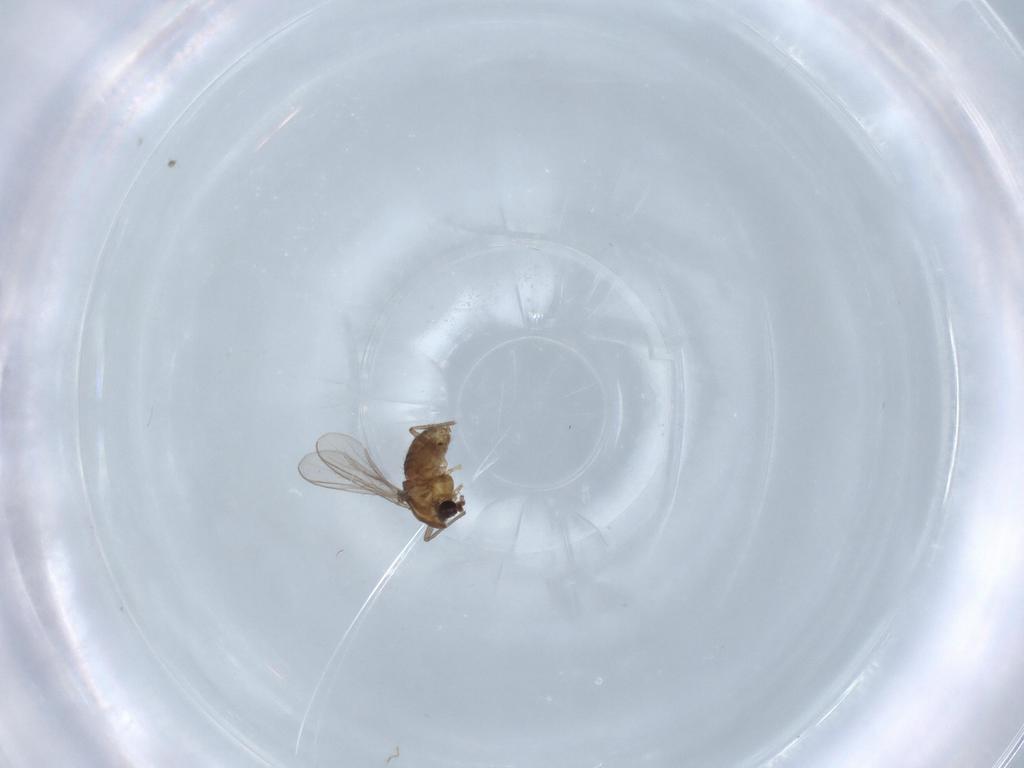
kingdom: Animalia
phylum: Arthropoda
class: Insecta
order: Diptera
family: Chironomidae
